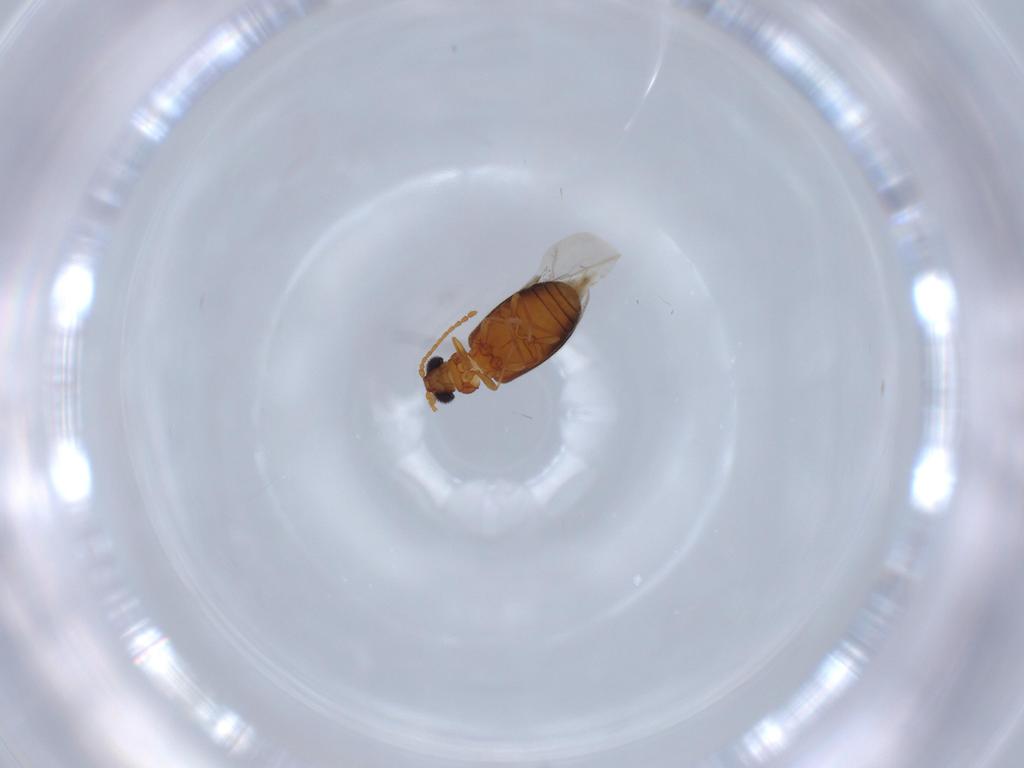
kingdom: Animalia
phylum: Arthropoda
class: Insecta
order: Coleoptera
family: Aderidae
